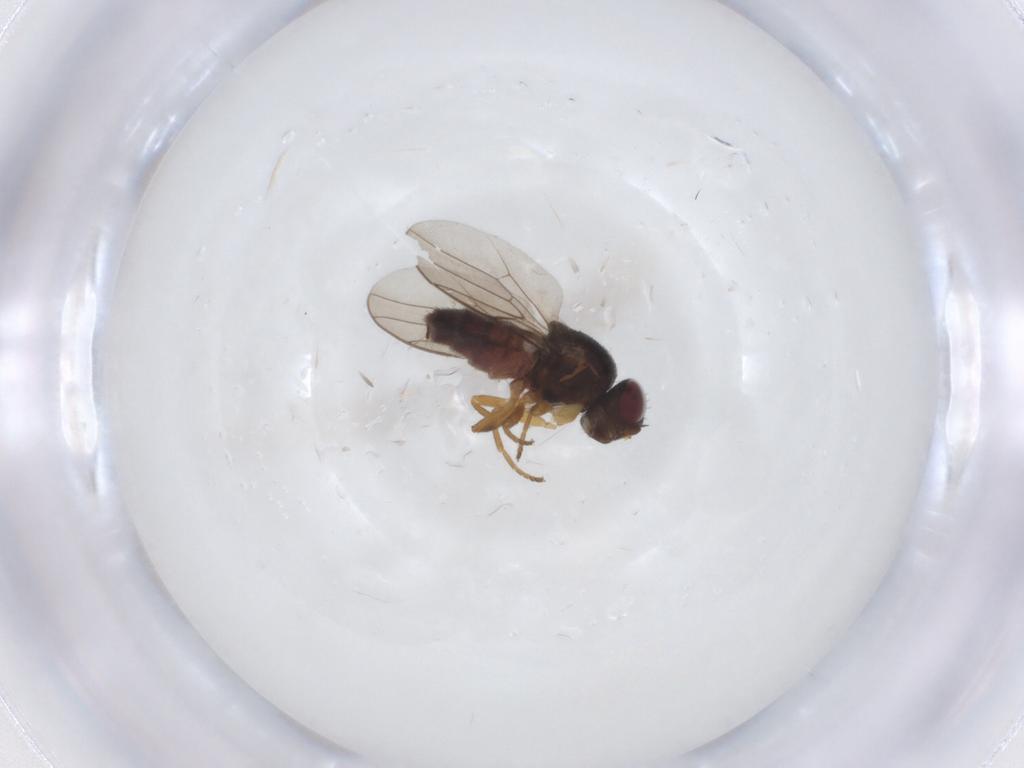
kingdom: Animalia
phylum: Arthropoda
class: Insecta
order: Diptera
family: Chloropidae
